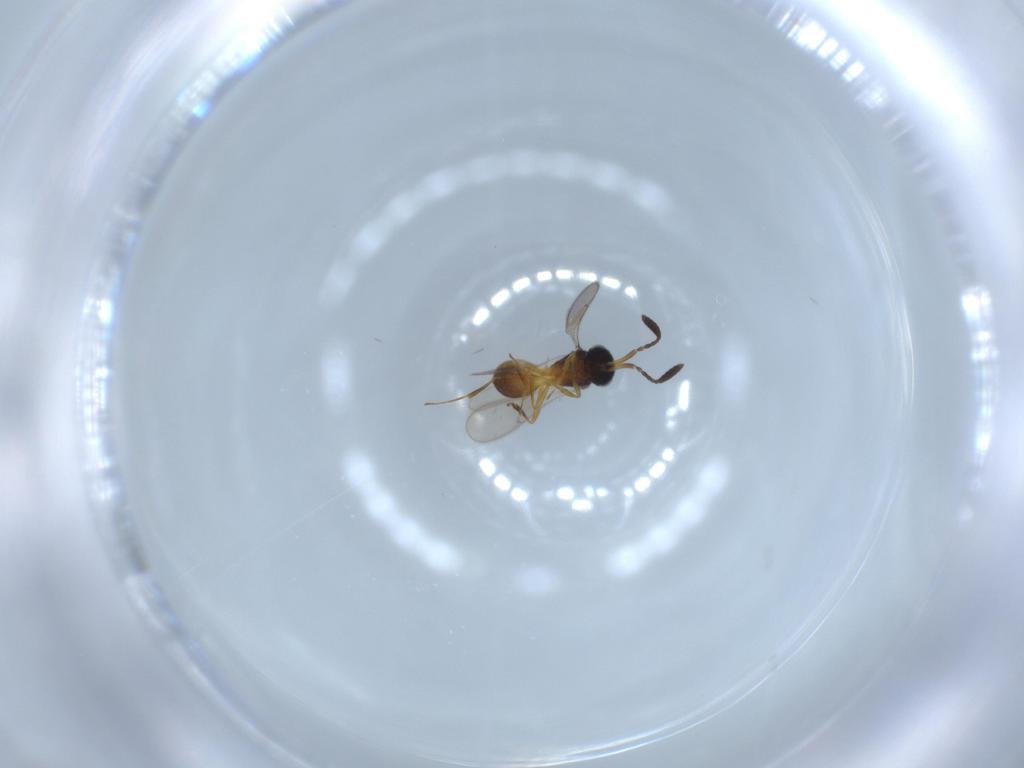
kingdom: Animalia
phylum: Arthropoda
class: Insecta
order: Hymenoptera
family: Scelionidae
